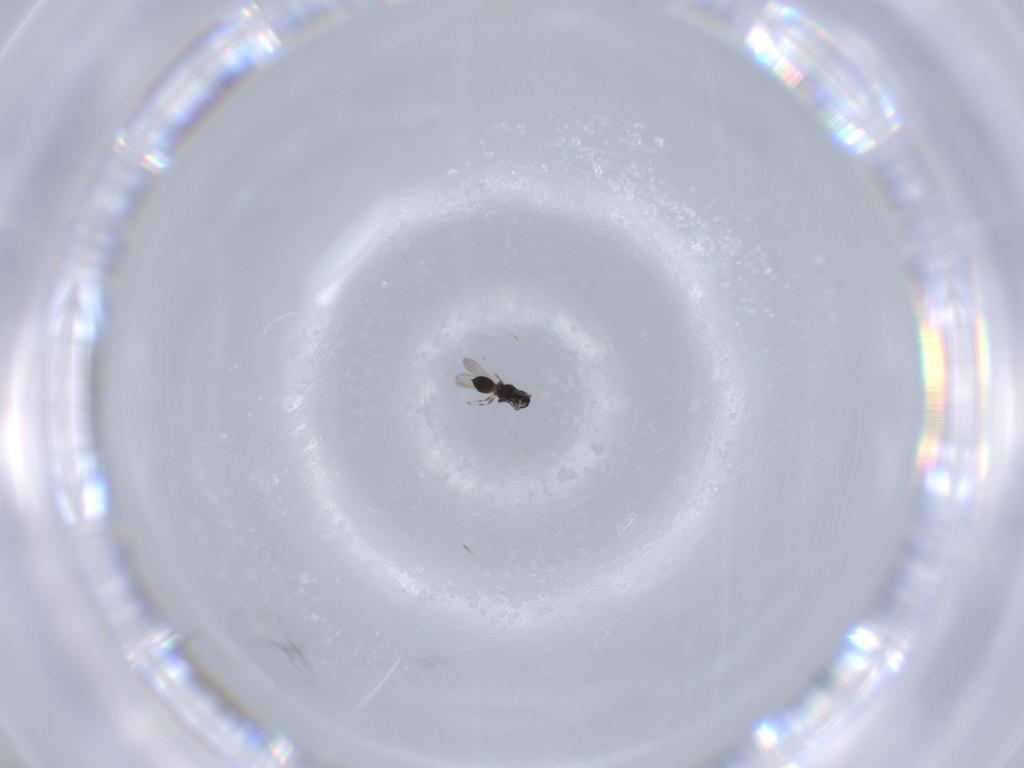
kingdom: Animalia
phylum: Arthropoda
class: Insecta
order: Hymenoptera
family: Scelionidae
